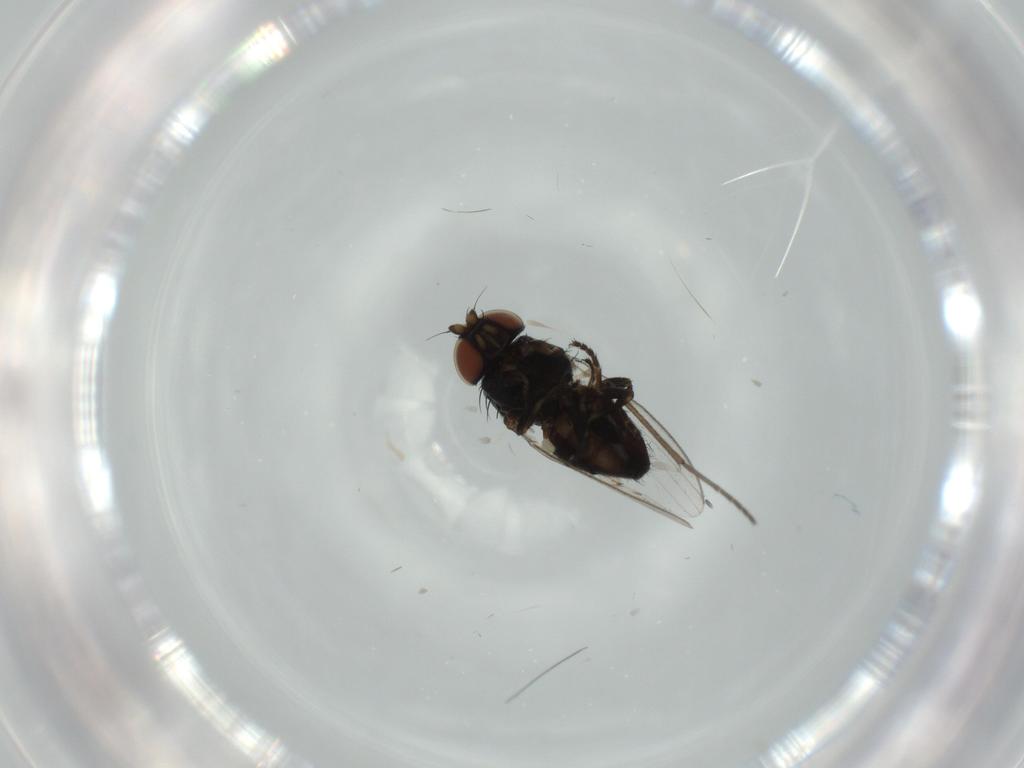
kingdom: Animalia
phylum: Arthropoda
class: Insecta
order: Diptera
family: Milichiidae
